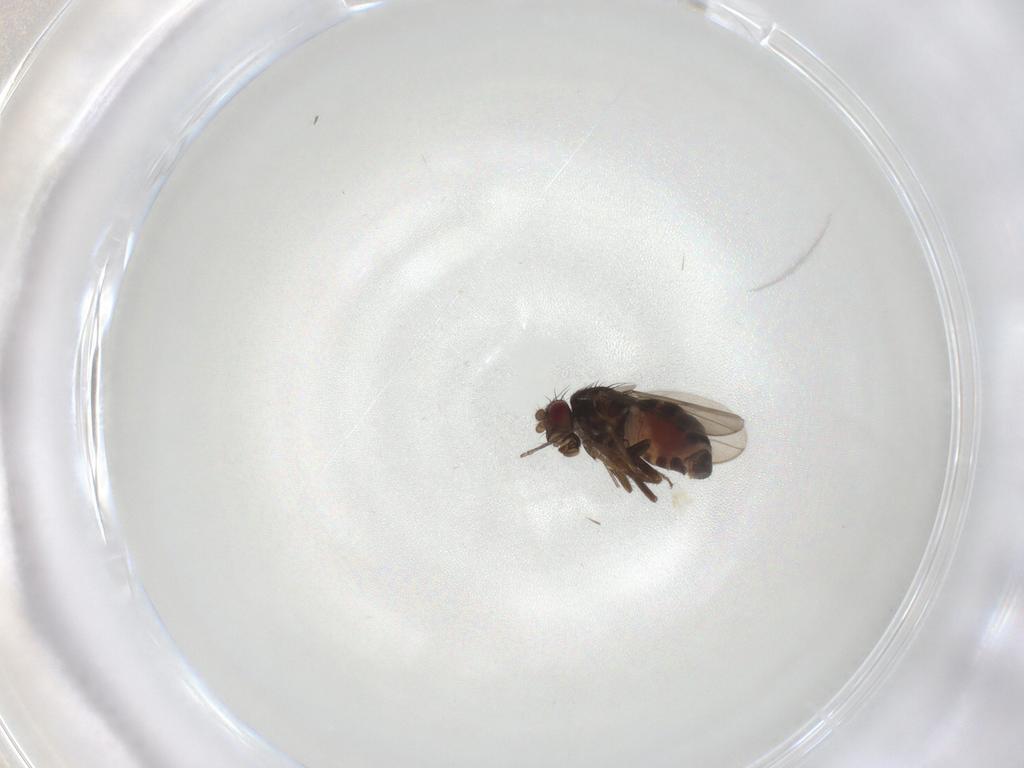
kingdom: Animalia
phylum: Arthropoda
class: Insecta
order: Diptera
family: Sphaeroceridae
